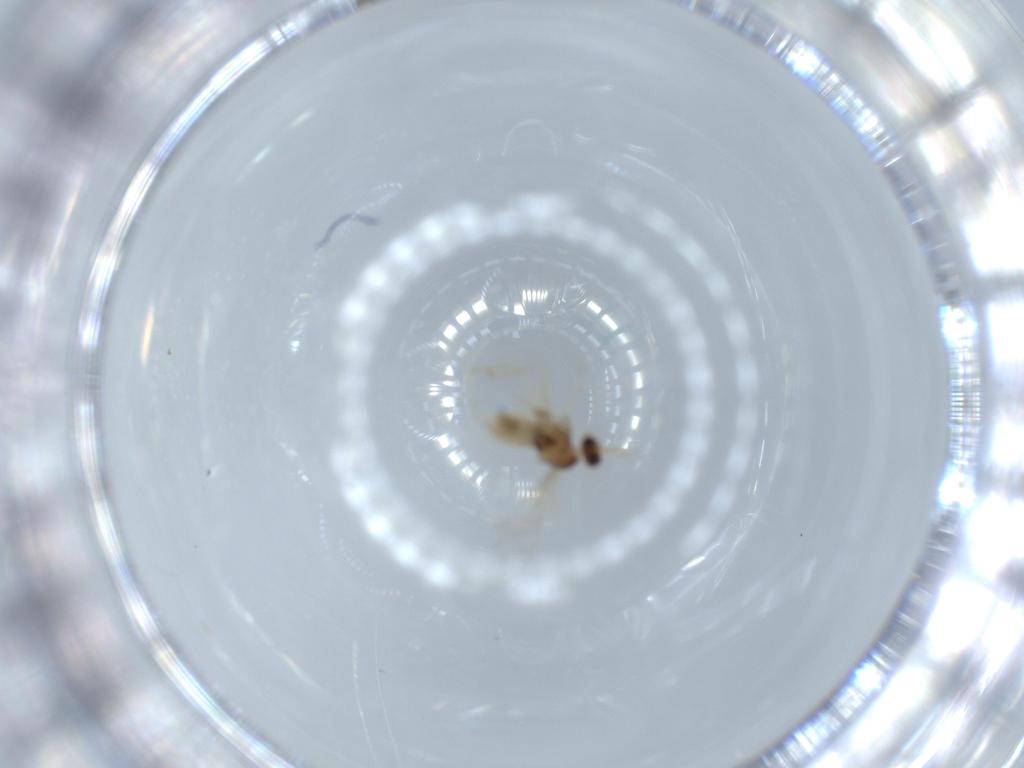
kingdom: Animalia
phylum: Arthropoda
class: Insecta
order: Diptera
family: Cecidomyiidae
